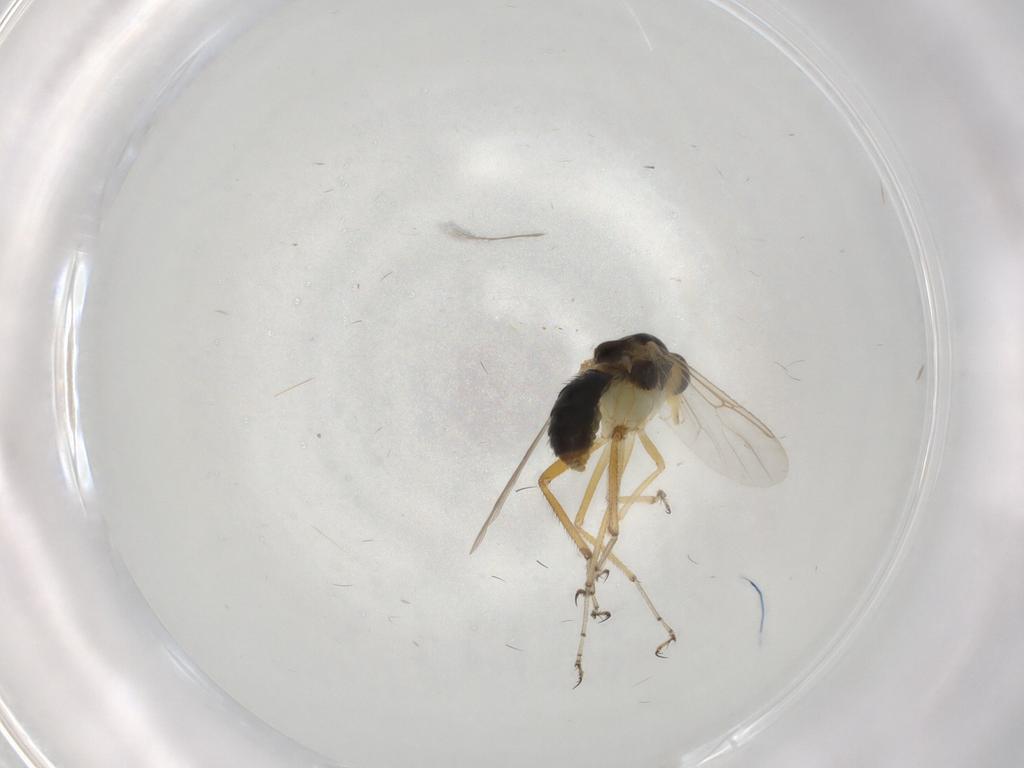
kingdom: Animalia
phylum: Arthropoda
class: Insecta
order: Diptera
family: Ceratopogonidae
